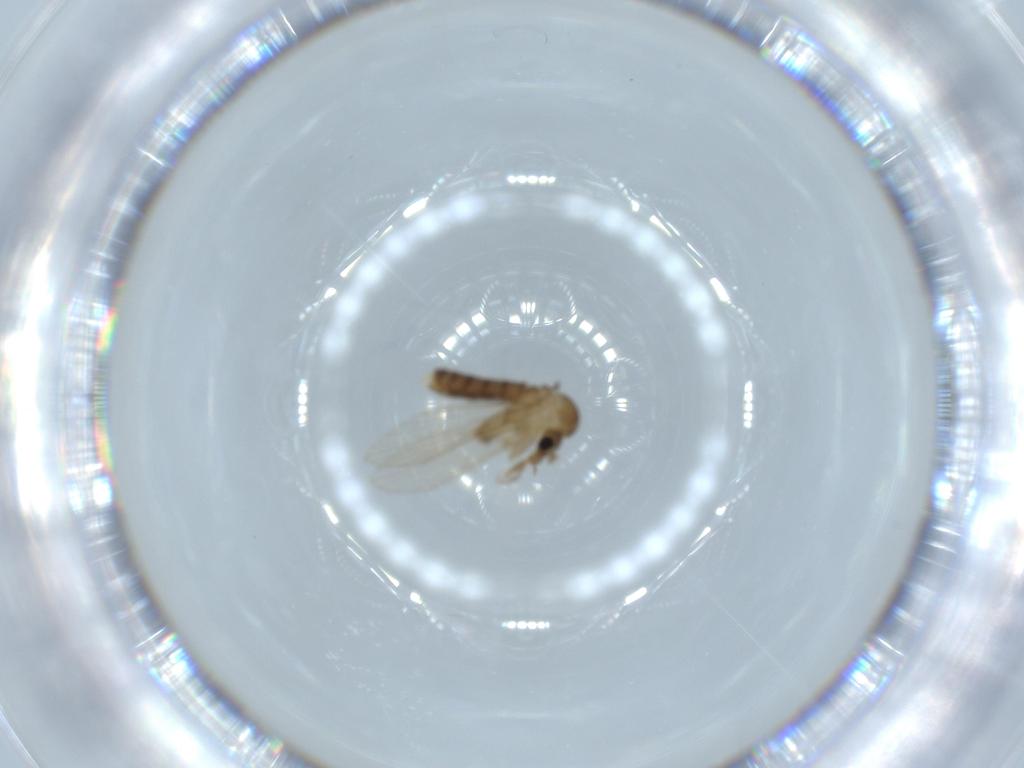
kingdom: Animalia
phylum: Arthropoda
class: Insecta
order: Diptera
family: Psychodidae
